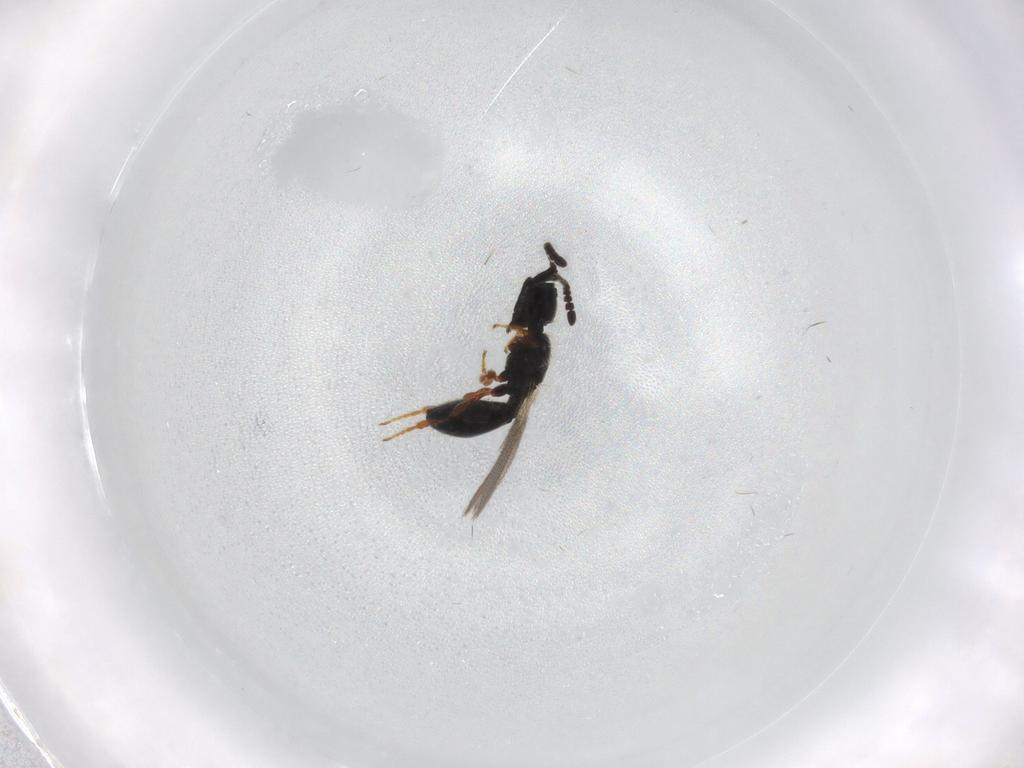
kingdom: Animalia
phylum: Arthropoda
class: Insecta
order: Hymenoptera
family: Diapriidae
